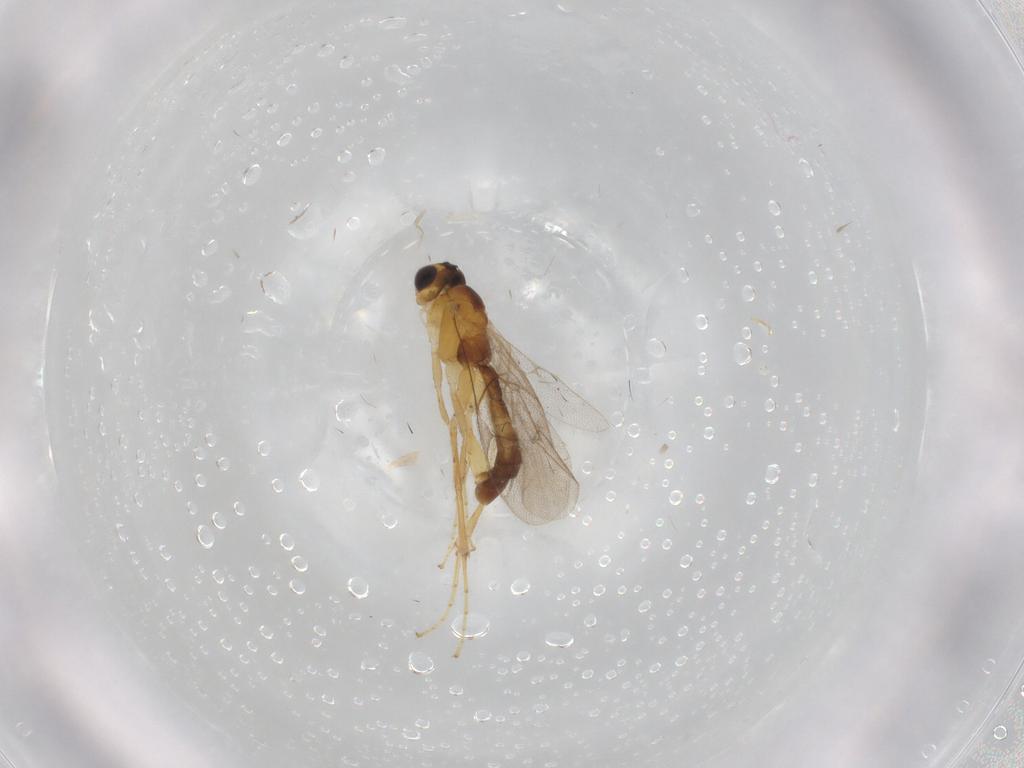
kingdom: Animalia
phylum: Arthropoda
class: Insecta
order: Hymenoptera
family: Ichneumonidae
